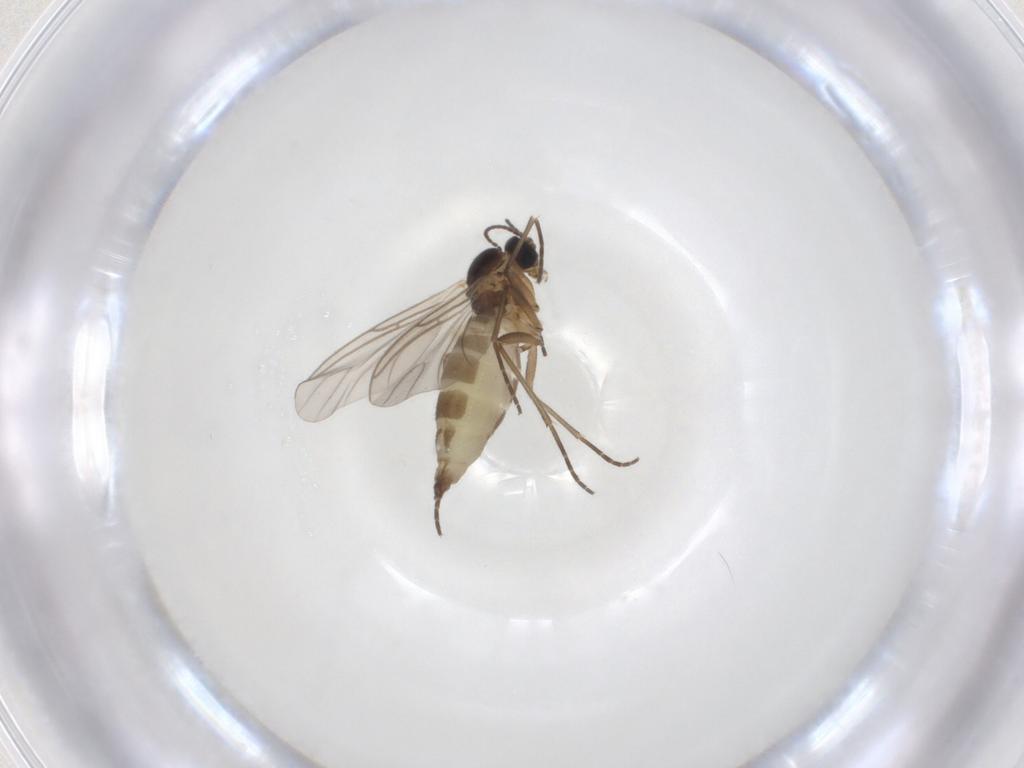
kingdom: Animalia
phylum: Arthropoda
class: Insecta
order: Diptera
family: Sciaridae
